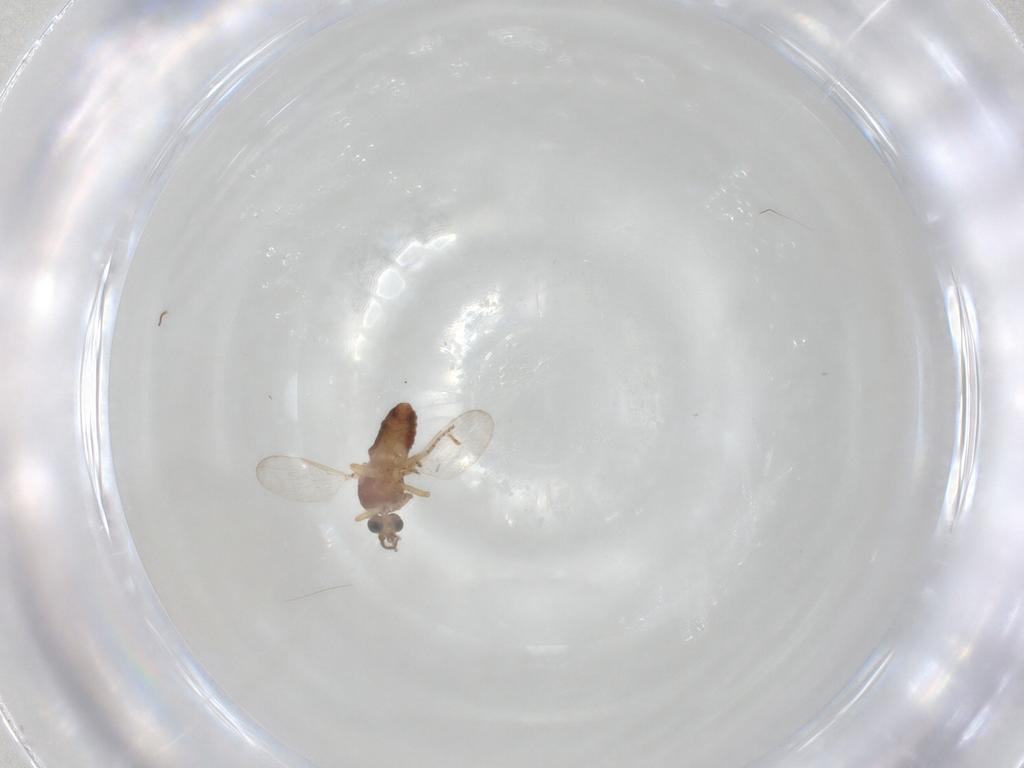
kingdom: Animalia
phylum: Arthropoda
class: Insecta
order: Diptera
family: Ceratopogonidae
